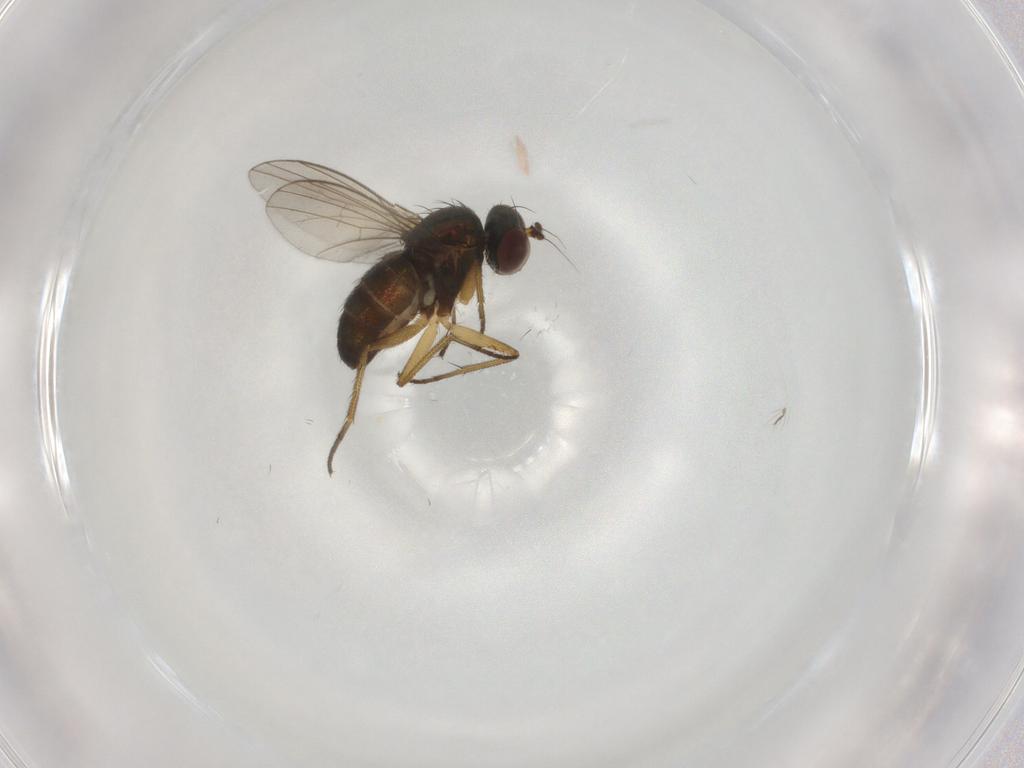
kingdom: Animalia
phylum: Arthropoda
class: Insecta
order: Diptera
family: Dolichopodidae
